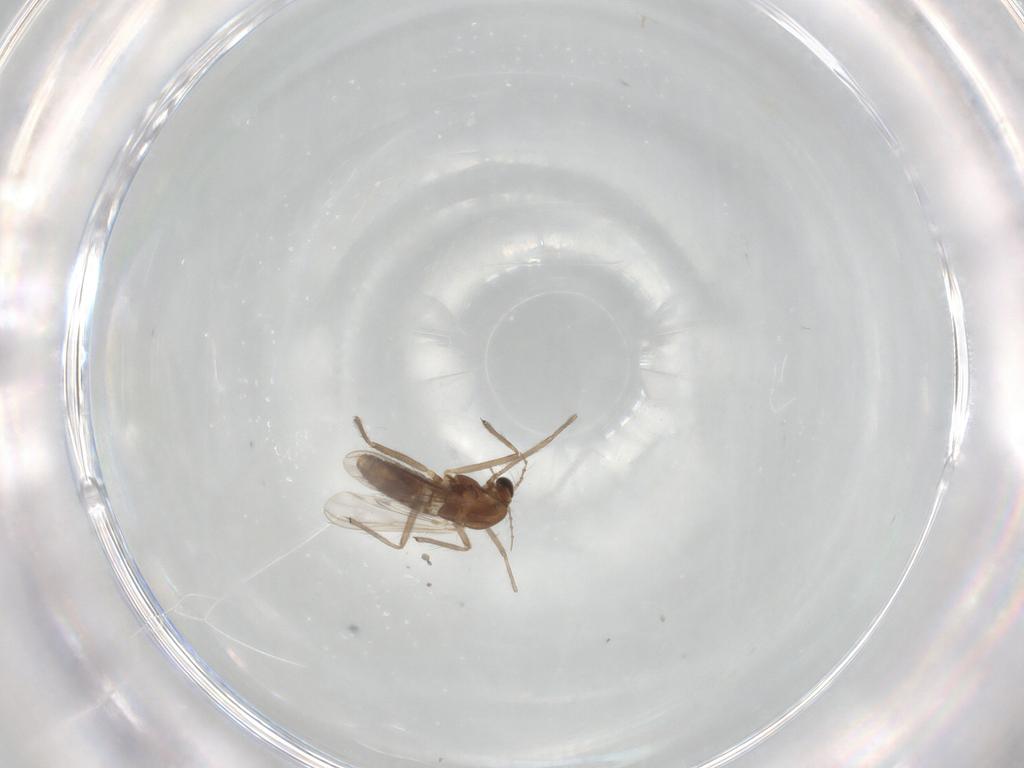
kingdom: Animalia
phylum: Arthropoda
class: Insecta
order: Diptera
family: Chironomidae
